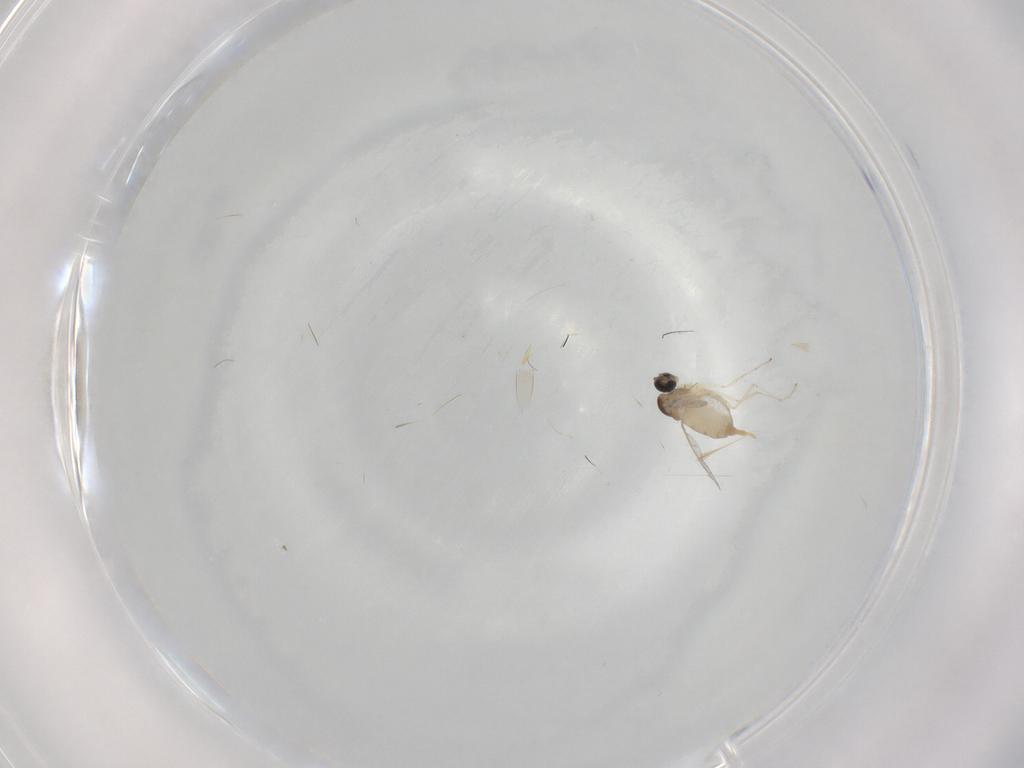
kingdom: Animalia
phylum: Arthropoda
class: Insecta
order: Diptera
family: Cecidomyiidae
